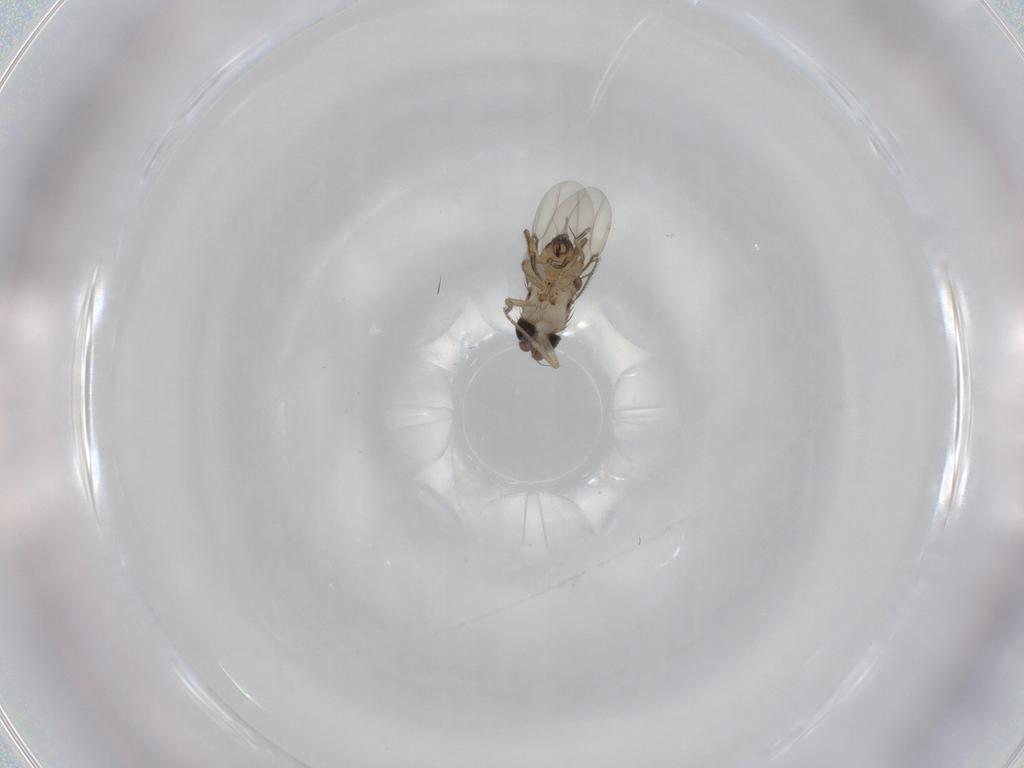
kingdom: Animalia
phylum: Arthropoda
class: Insecta
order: Diptera
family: Phoridae
